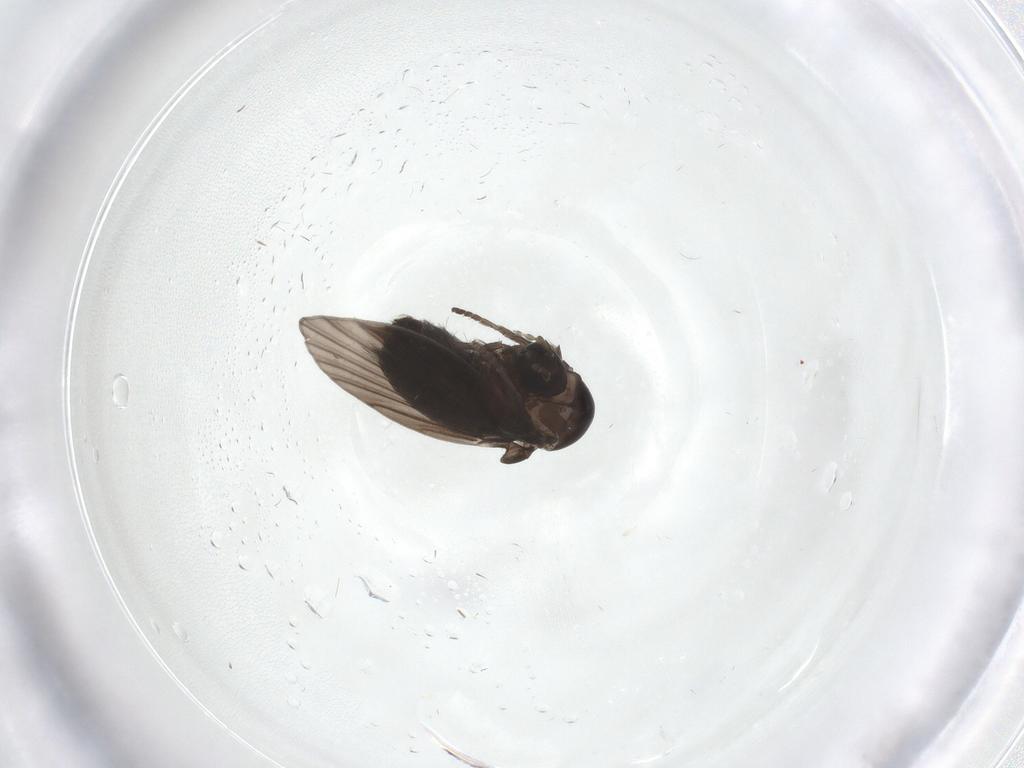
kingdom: Animalia
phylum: Arthropoda
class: Insecta
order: Diptera
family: Psychodidae
